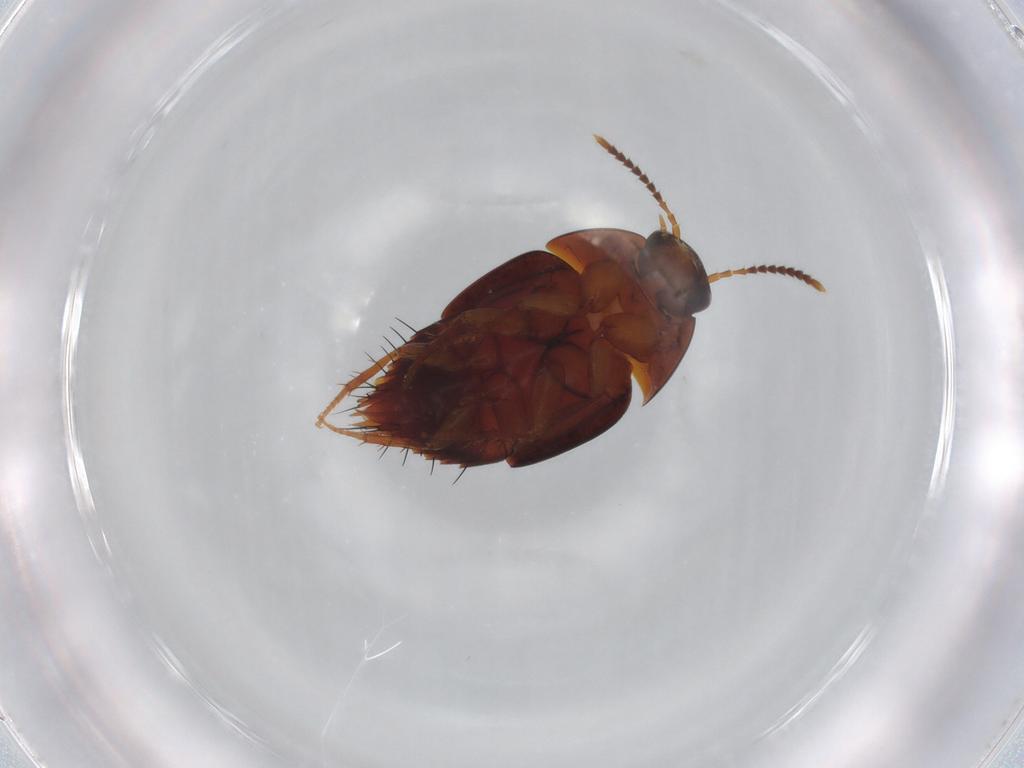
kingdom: Animalia
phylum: Arthropoda
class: Insecta
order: Coleoptera
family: Staphylinidae
